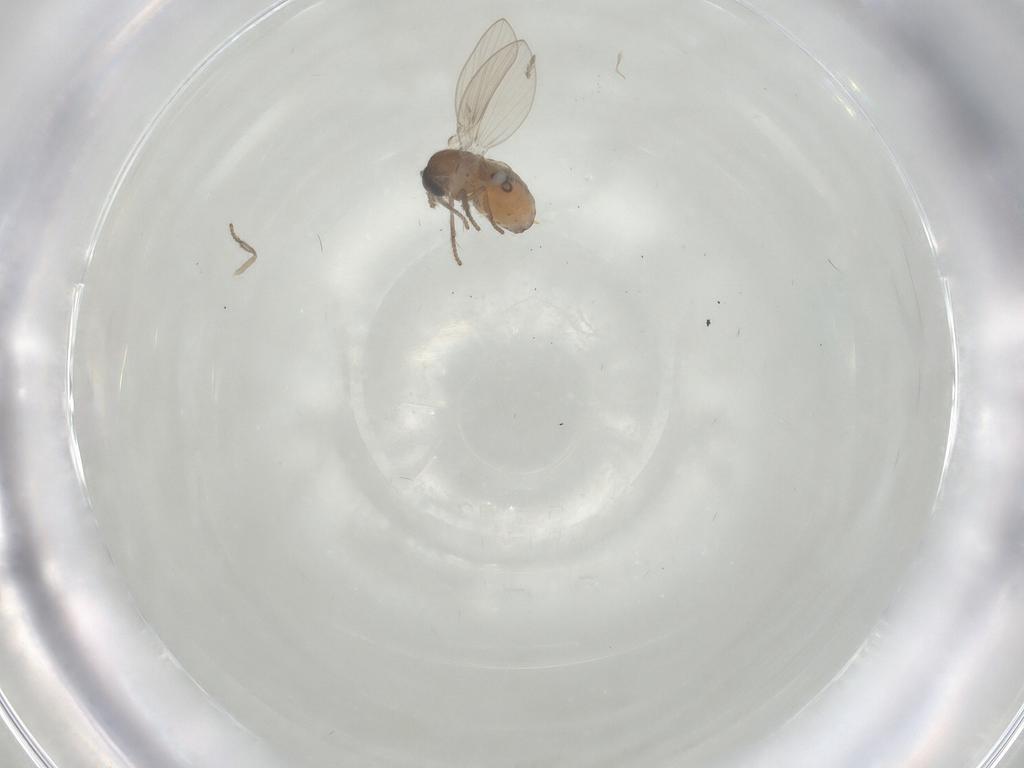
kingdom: Animalia
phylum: Arthropoda
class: Insecta
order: Diptera
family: Psychodidae
